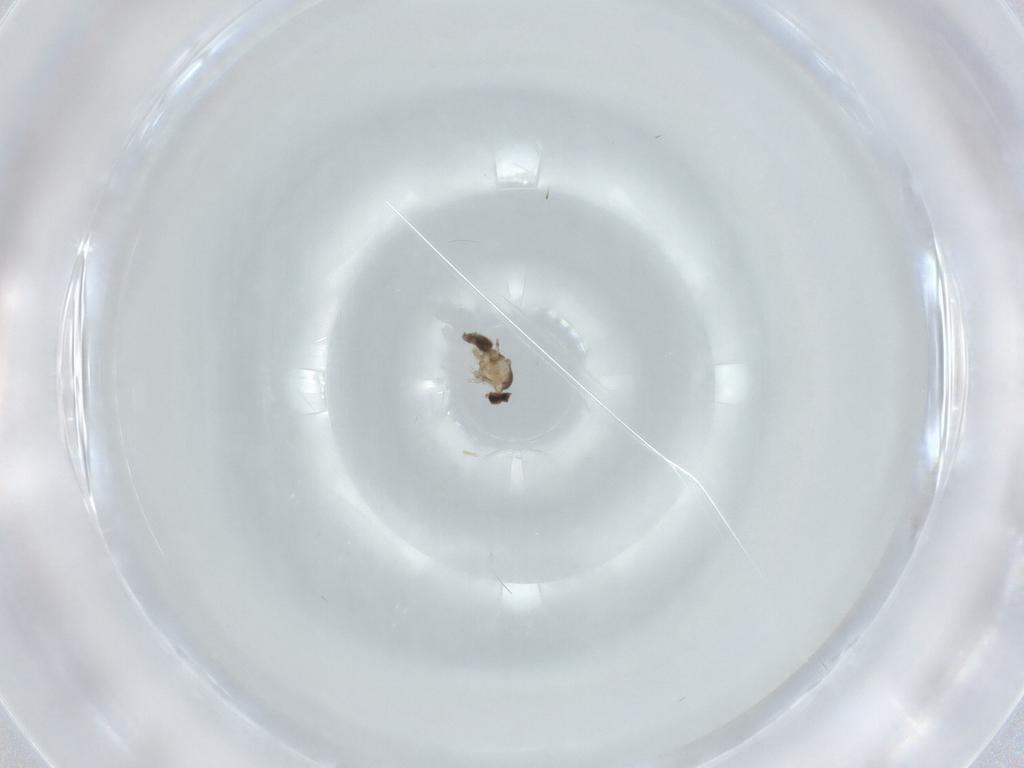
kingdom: Animalia
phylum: Arthropoda
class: Insecta
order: Diptera
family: Cecidomyiidae
